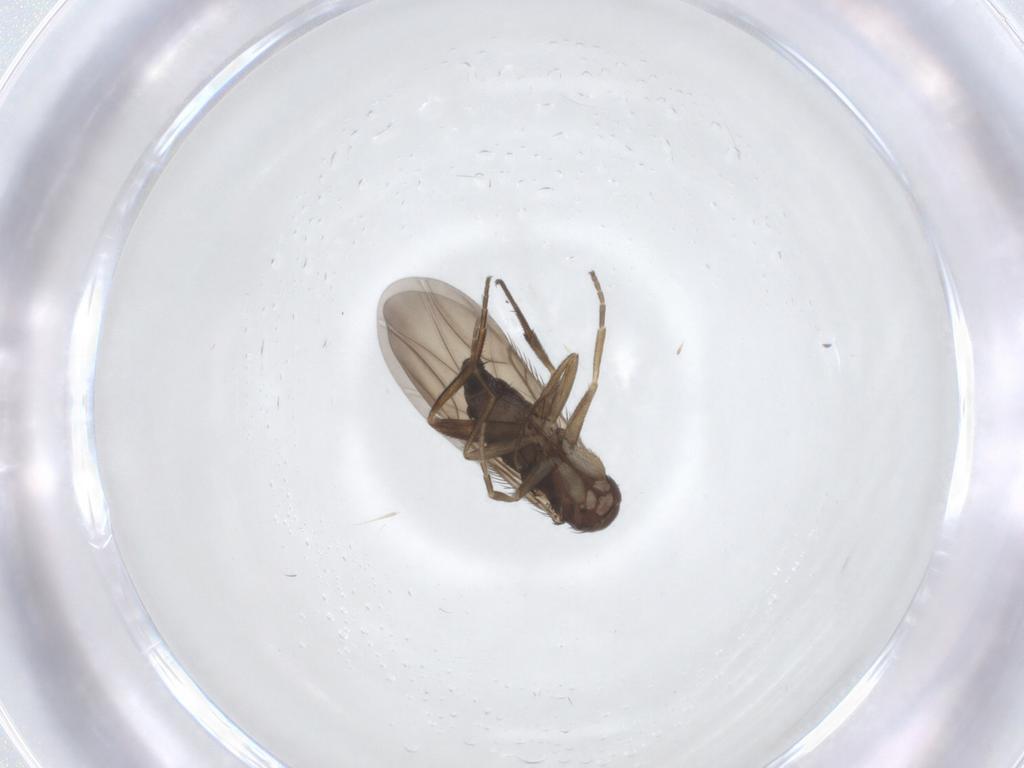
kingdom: Animalia
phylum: Arthropoda
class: Insecta
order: Diptera
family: Phoridae
